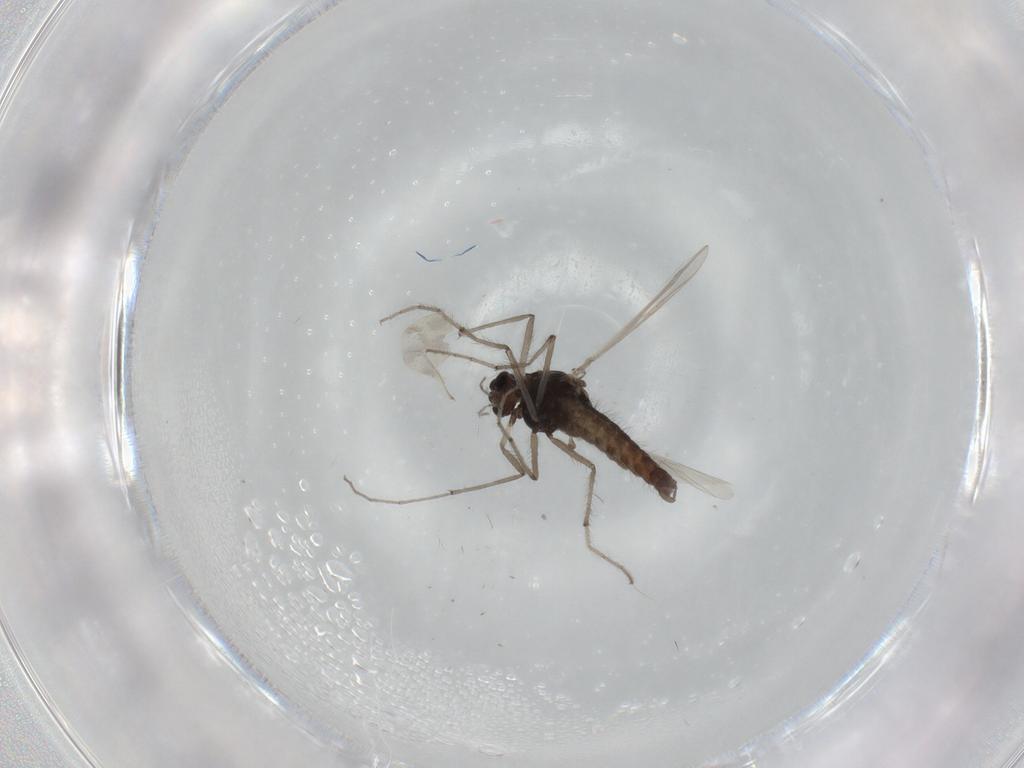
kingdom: Animalia
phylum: Arthropoda
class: Insecta
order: Diptera
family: Chironomidae
